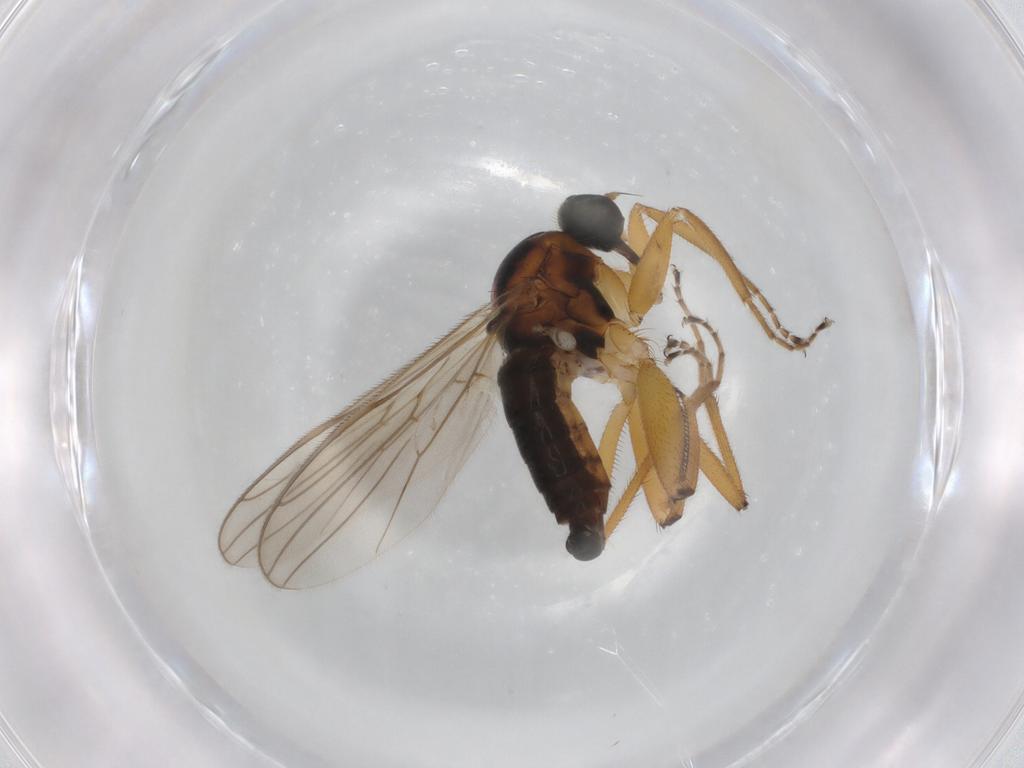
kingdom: Animalia
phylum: Arthropoda
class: Insecta
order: Diptera
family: Hybotidae
